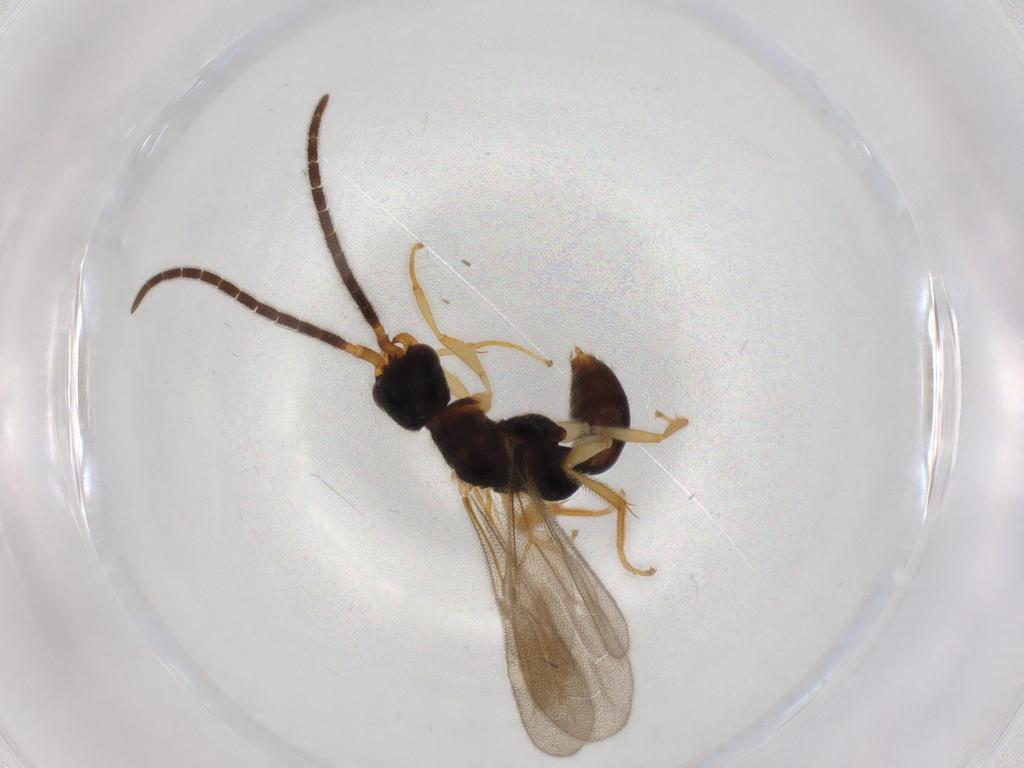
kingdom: Animalia
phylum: Arthropoda
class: Insecta
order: Hymenoptera
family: Bethylidae
